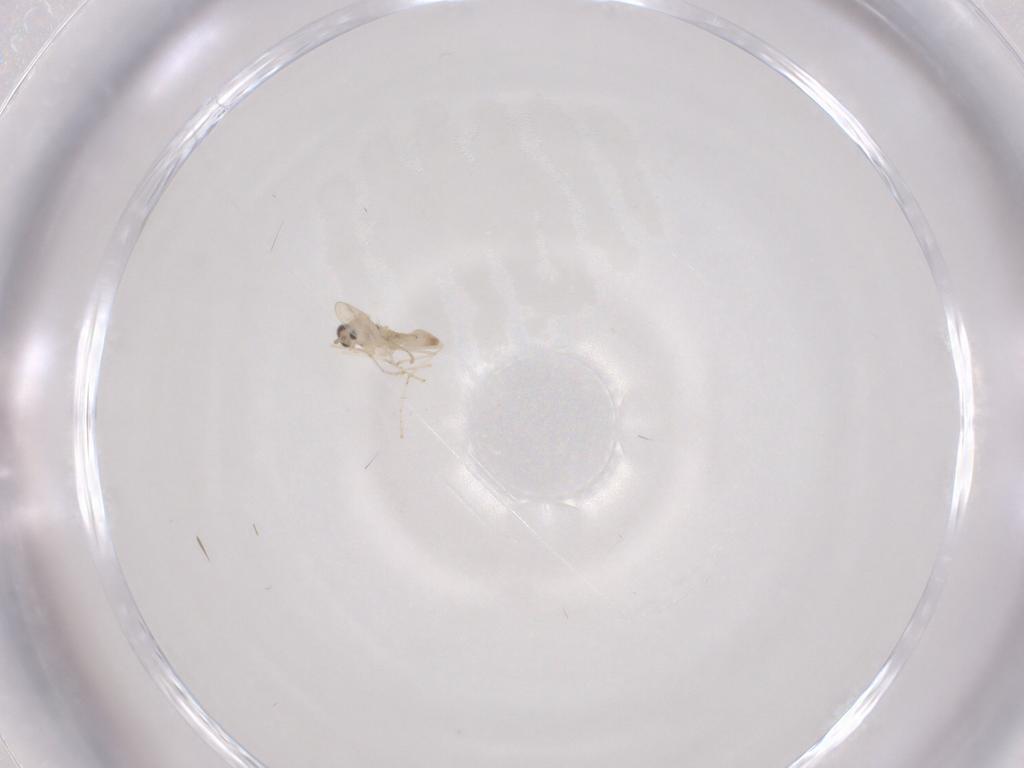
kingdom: Animalia
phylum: Arthropoda
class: Insecta
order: Diptera
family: Cecidomyiidae
